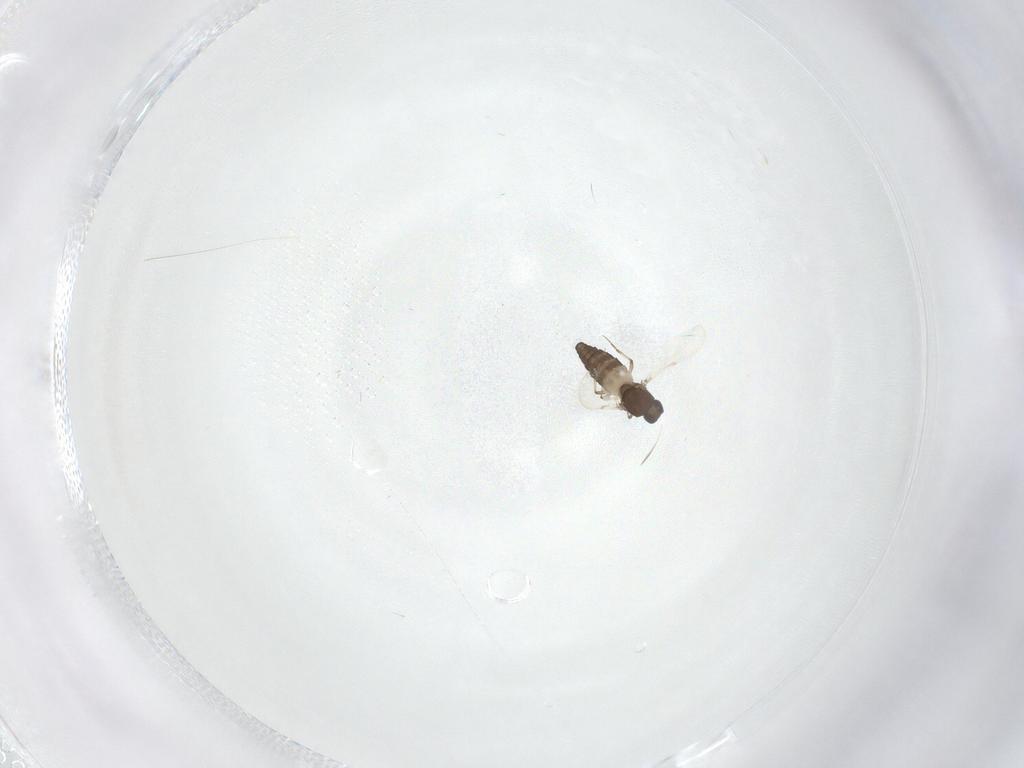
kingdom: Animalia
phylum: Arthropoda
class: Insecta
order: Diptera
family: Ceratopogonidae
